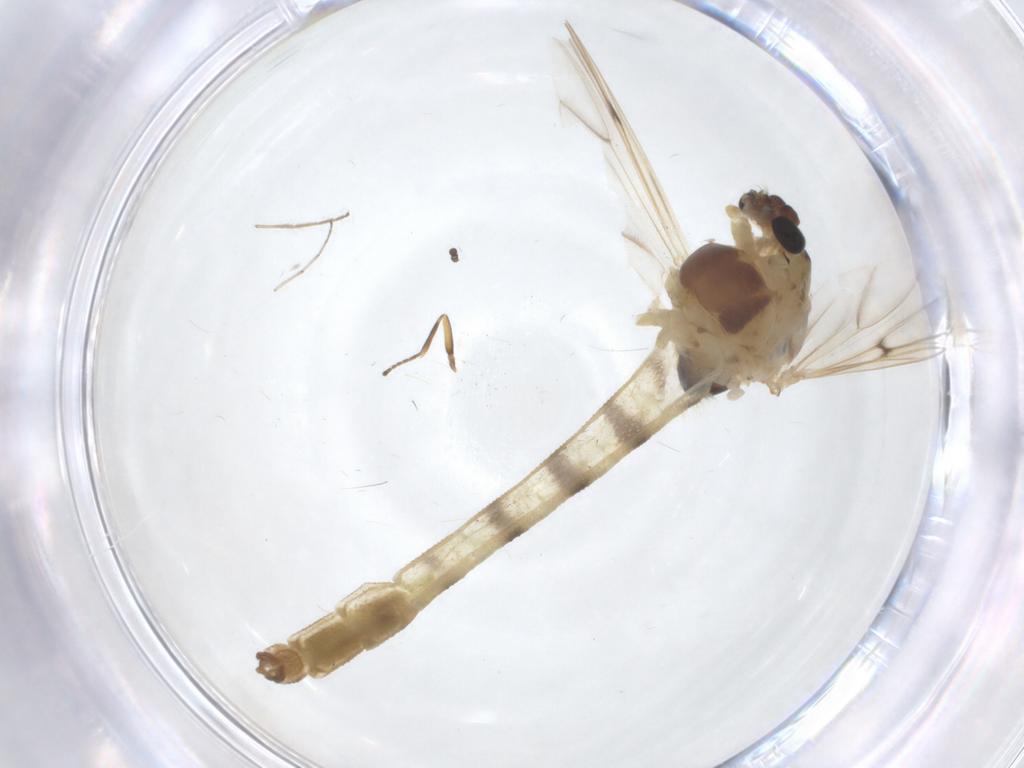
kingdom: Animalia
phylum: Arthropoda
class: Insecta
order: Diptera
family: Chironomidae
